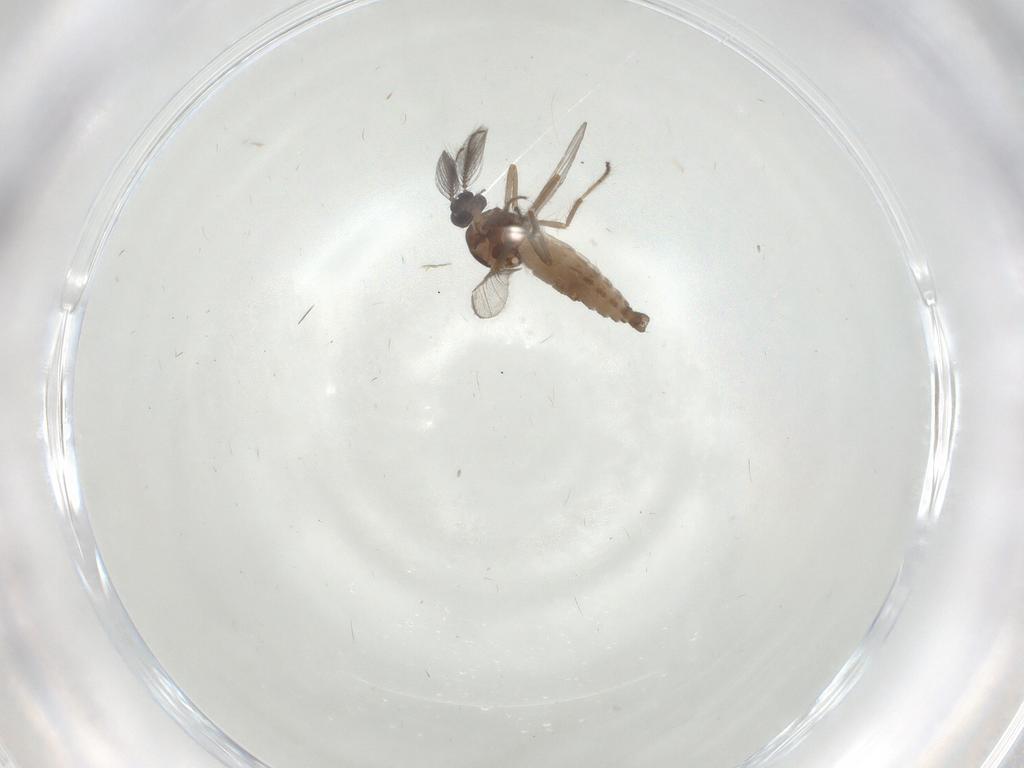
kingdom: Animalia
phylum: Arthropoda
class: Insecta
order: Diptera
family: Ceratopogonidae
